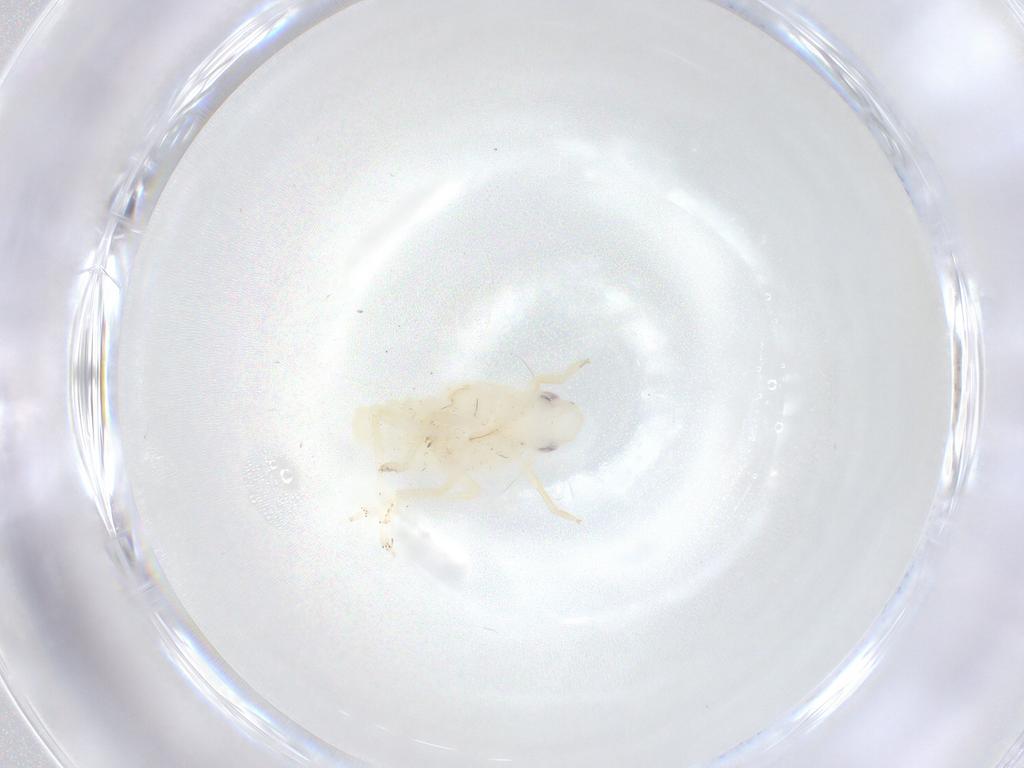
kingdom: Animalia
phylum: Arthropoda
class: Insecta
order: Hemiptera
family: Tropiduchidae
